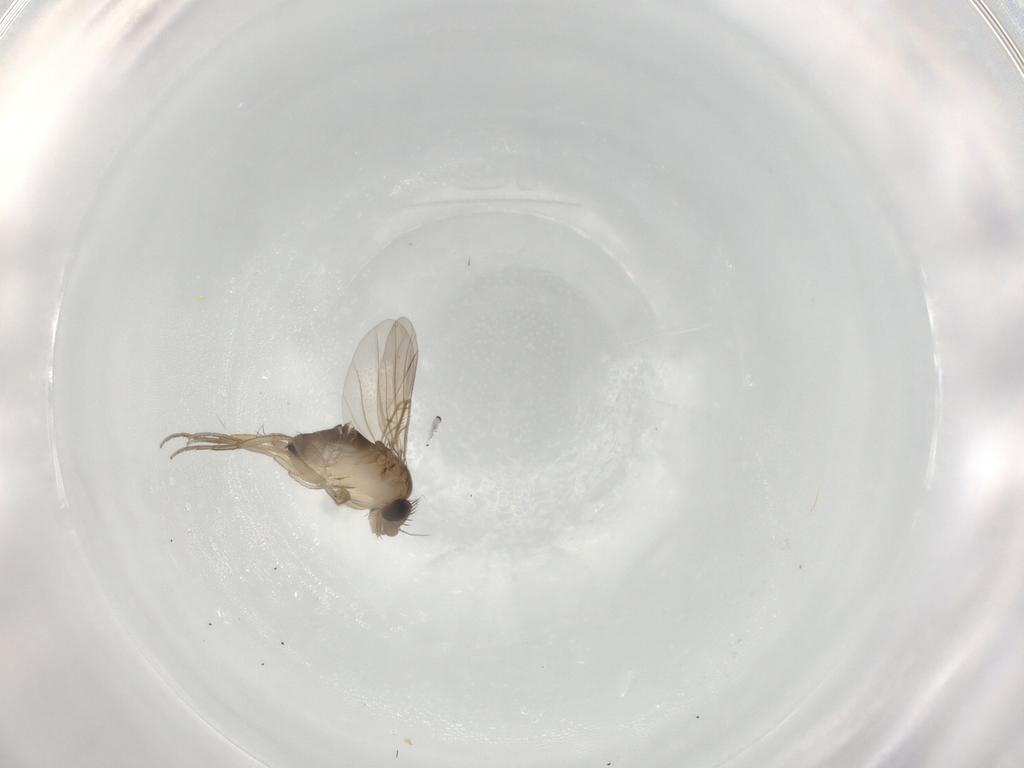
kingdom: Animalia
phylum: Arthropoda
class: Insecta
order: Diptera
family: Phoridae
